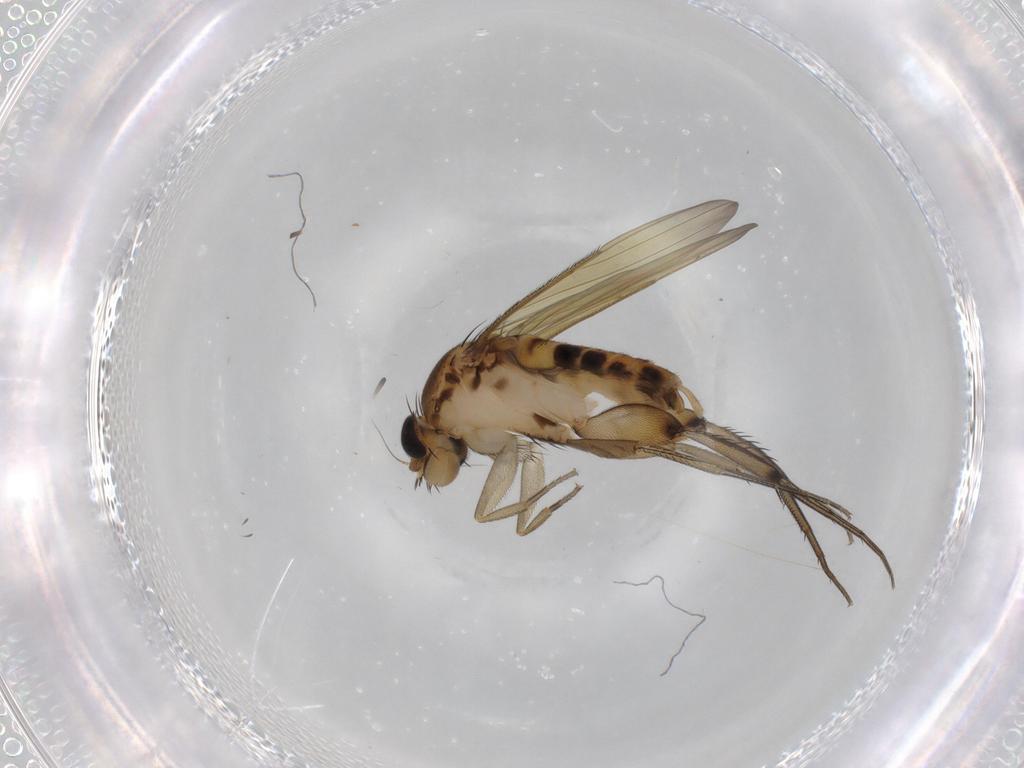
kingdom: Animalia
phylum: Arthropoda
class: Insecta
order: Diptera
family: Phoridae
